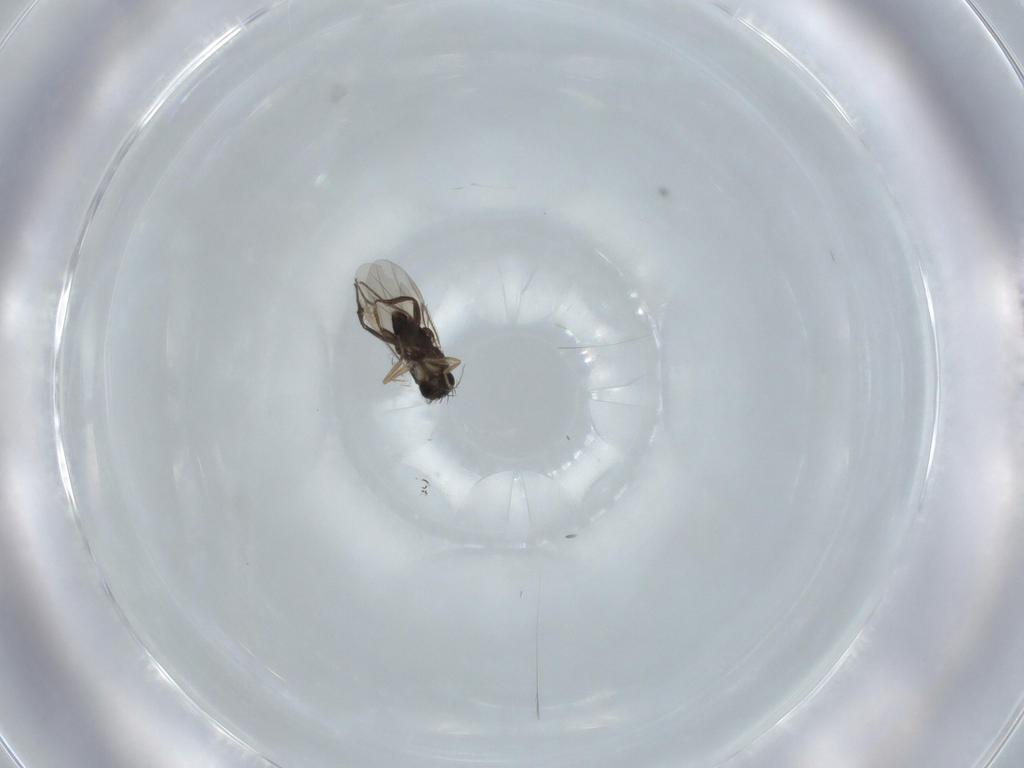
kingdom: Animalia
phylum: Arthropoda
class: Insecta
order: Diptera
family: Phoridae
